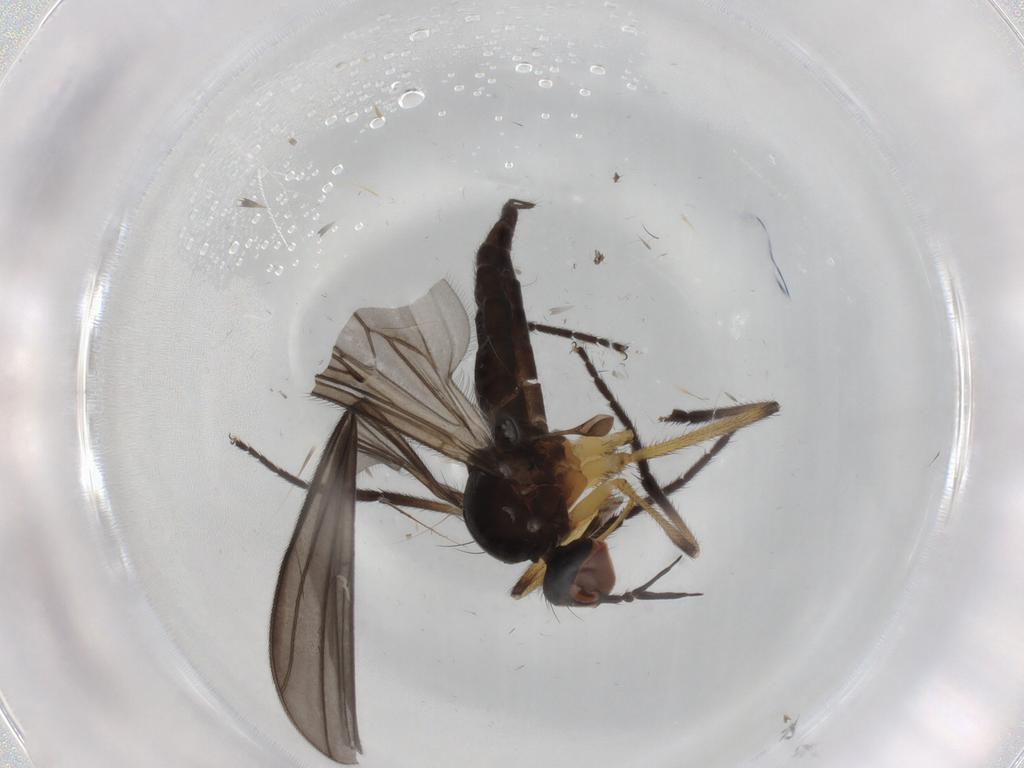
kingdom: Animalia
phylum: Arthropoda
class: Insecta
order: Diptera
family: Empididae
